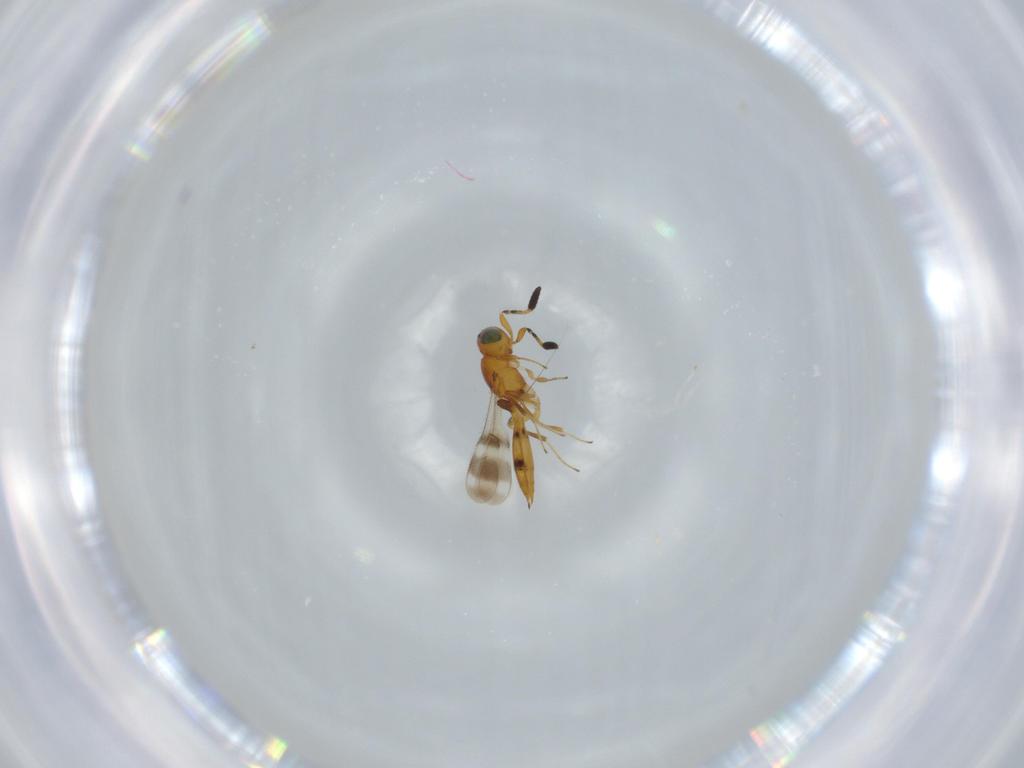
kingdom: Animalia
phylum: Arthropoda
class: Insecta
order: Hymenoptera
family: Scelionidae
